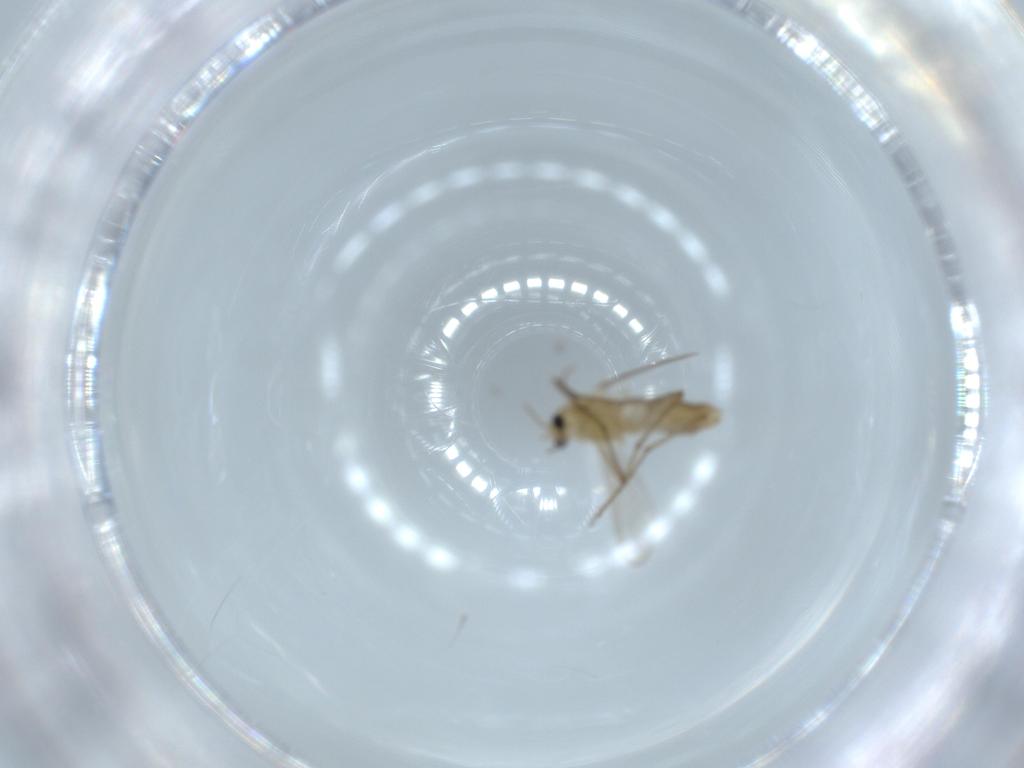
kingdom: Animalia
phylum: Arthropoda
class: Insecta
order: Diptera
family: Chironomidae
